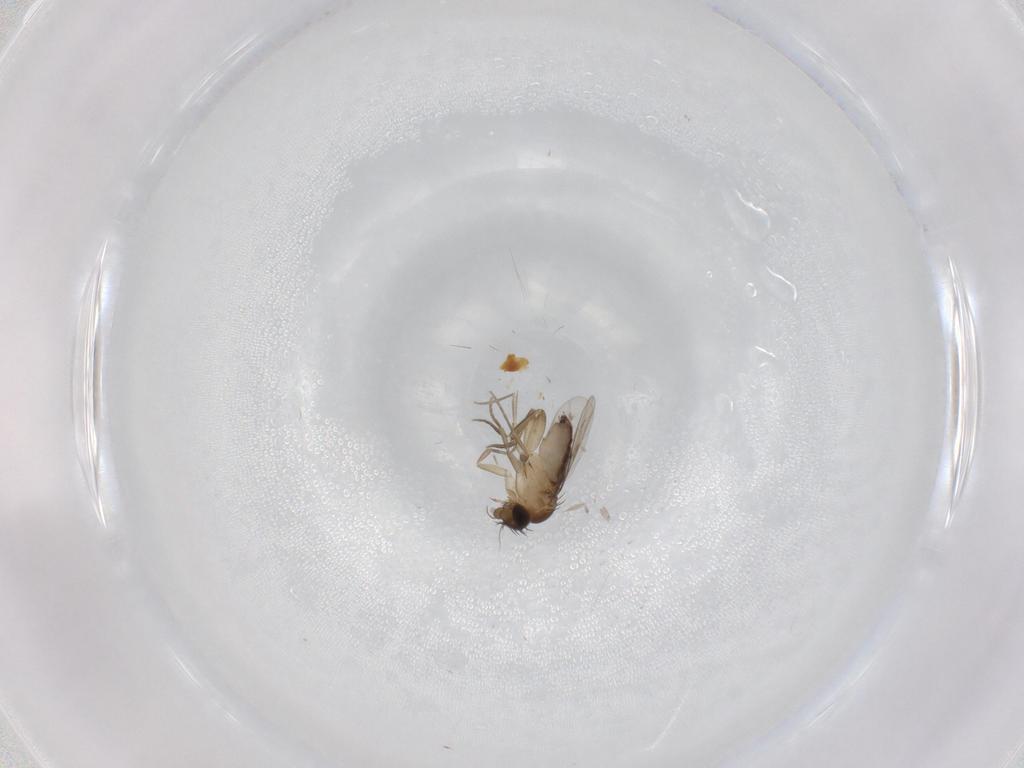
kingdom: Animalia
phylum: Arthropoda
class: Insecta
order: Diptera
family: Phoridae
